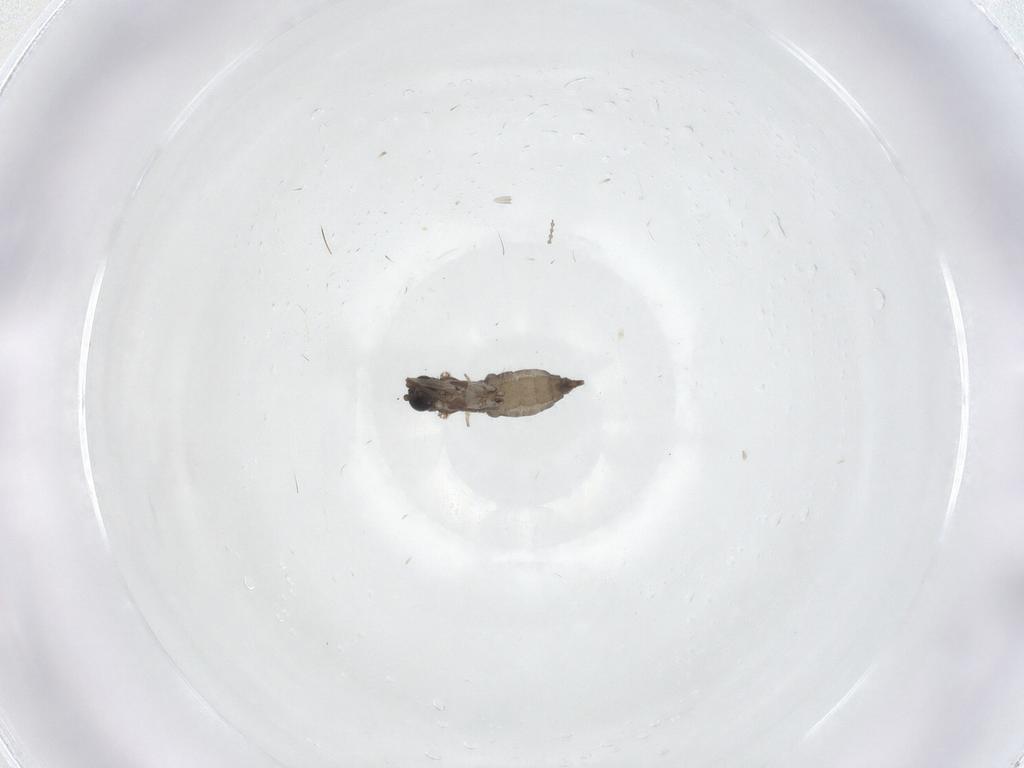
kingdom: Animalia
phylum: Arthropoda
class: Insecta
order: Diptera
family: Sciaridae
